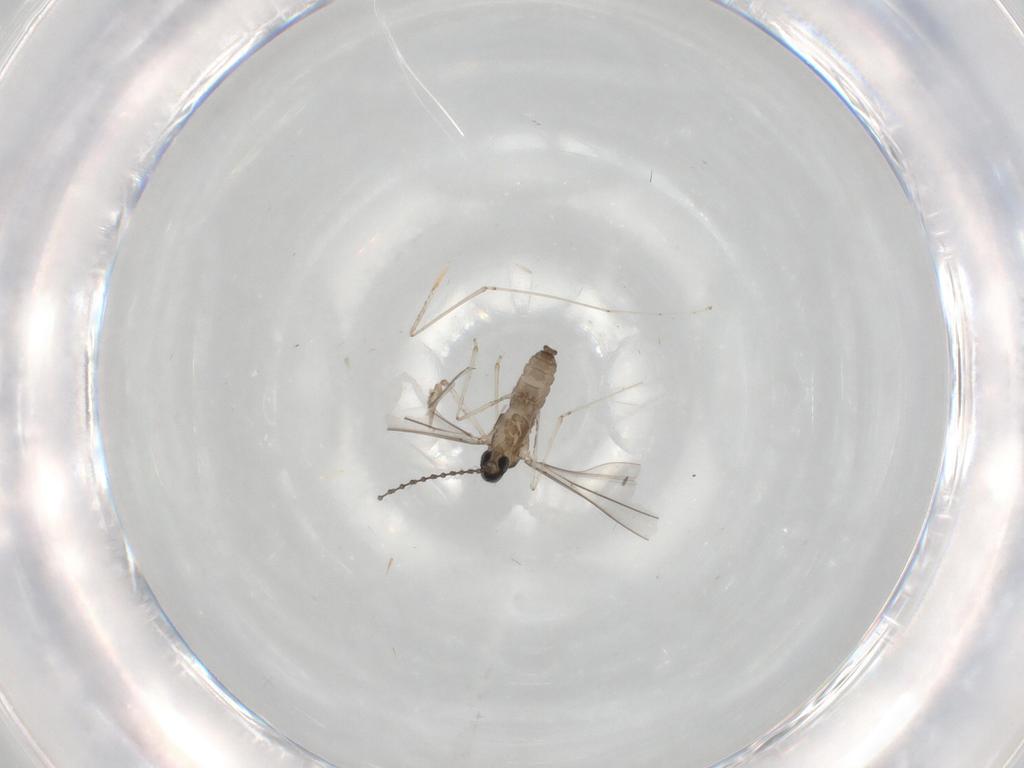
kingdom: Animalia
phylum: Arthropoda
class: Insecta
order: Diptera
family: Cecidomyiidae
